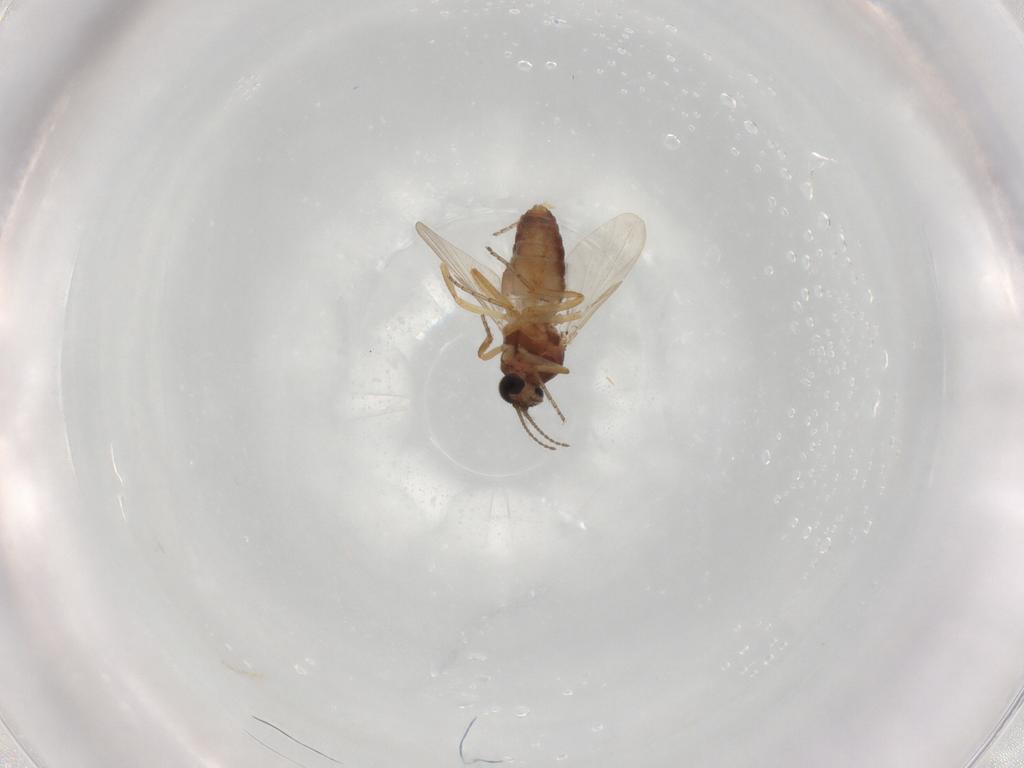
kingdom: Animalia
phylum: Arthropoda
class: Insecta
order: Diptera
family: Ceratopogonidae
